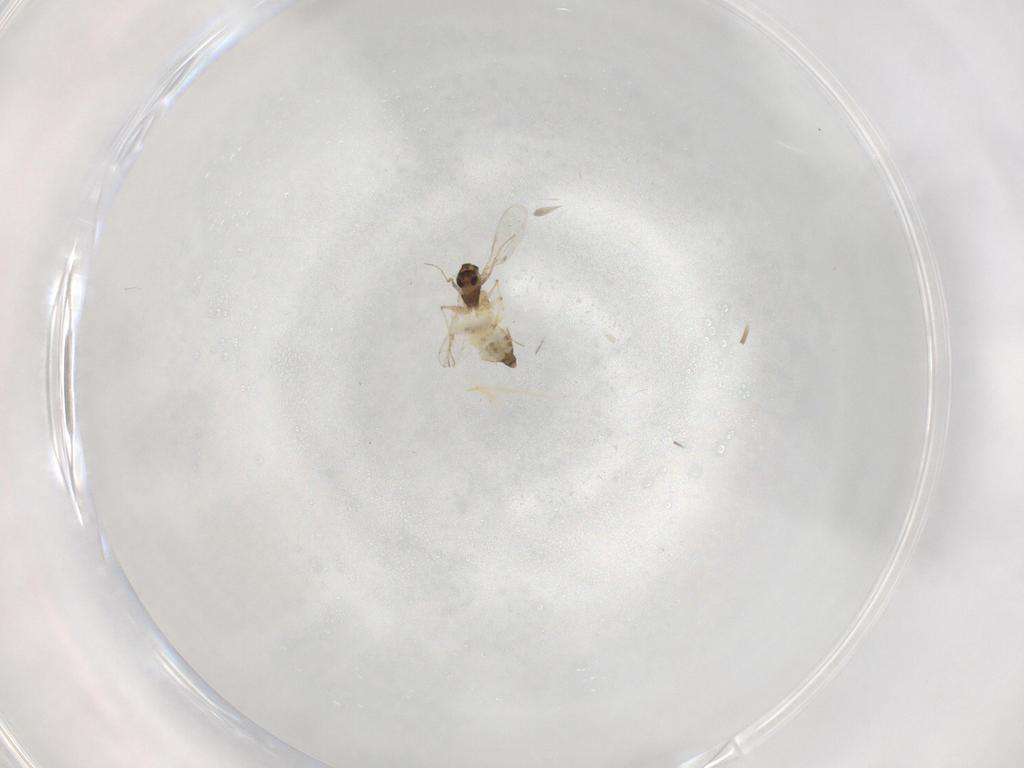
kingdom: Animalia
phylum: Arthropoda
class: Insecta
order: Diptera
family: Chironomidae
